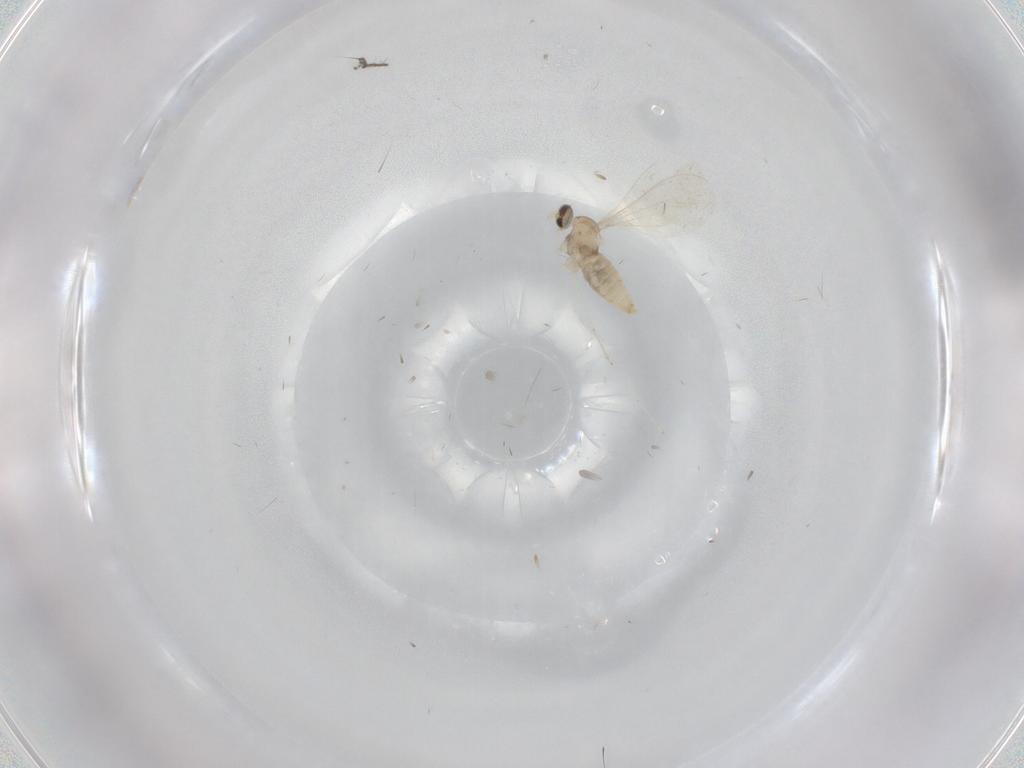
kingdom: Animalia
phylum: Arthropoda
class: Insecta
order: Diptera
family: Cecidomyiidae
